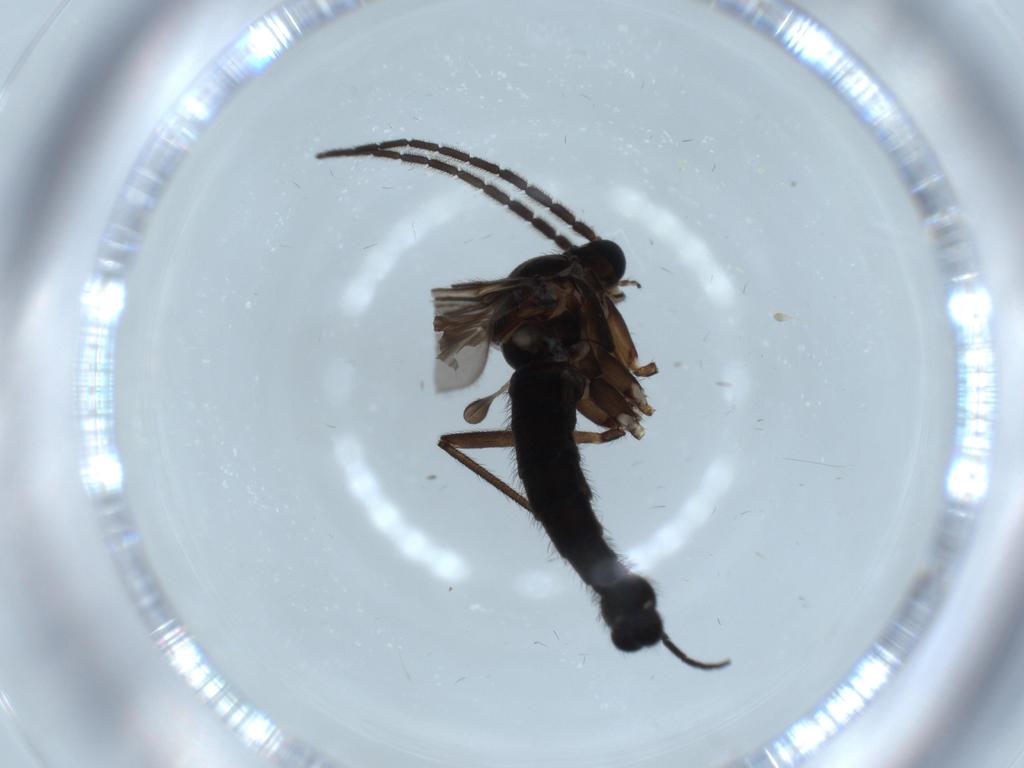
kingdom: Animalia
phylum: Arthropoda
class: Insecta
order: Diptera
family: Sciaridae
